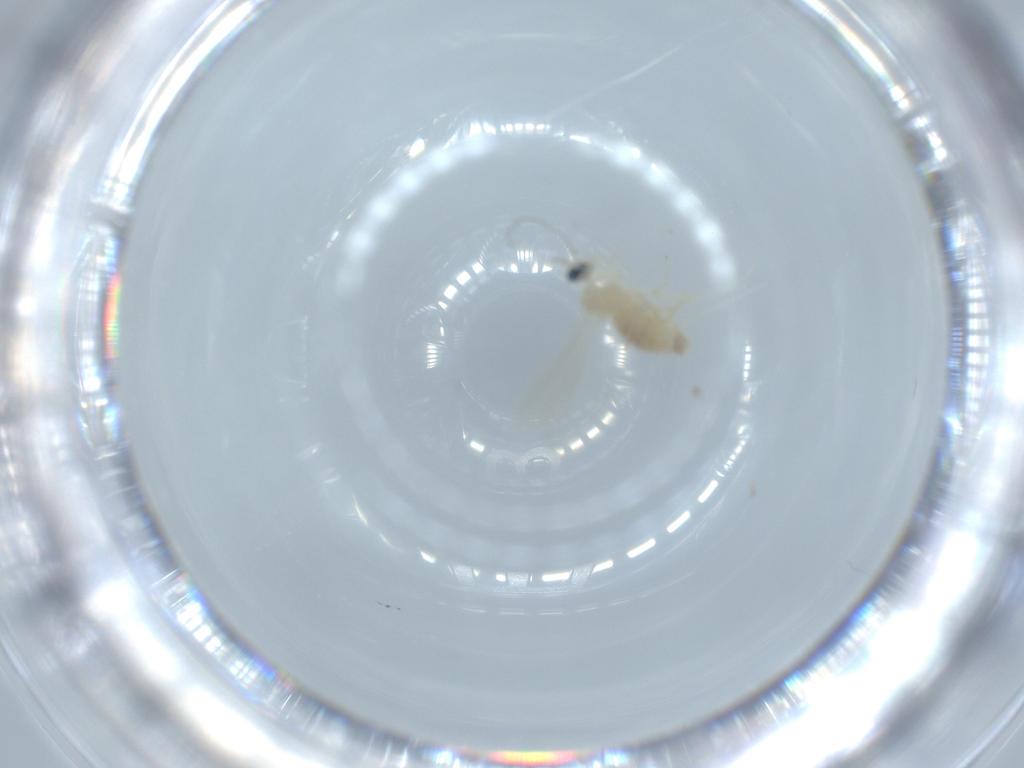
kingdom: Animalia
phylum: Arthropoda
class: Insecta
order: Diptera
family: Cecidomyiidae
